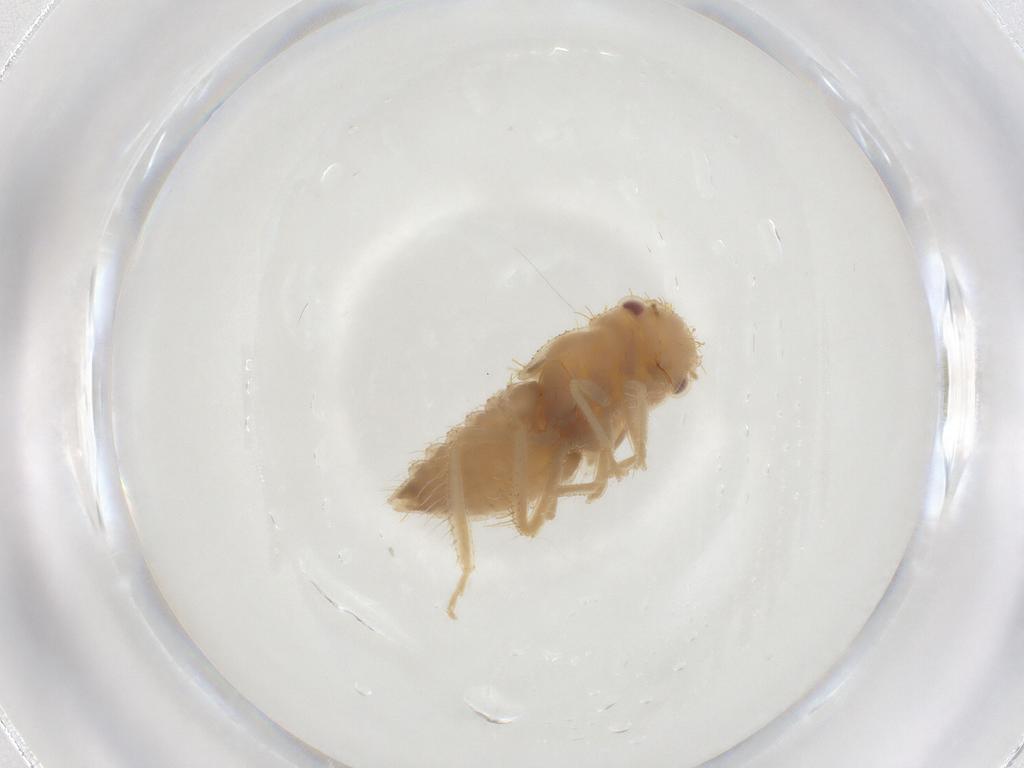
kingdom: Animalia
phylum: Arthropoda
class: Insecta
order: Hemiptera
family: Cicadellidae
